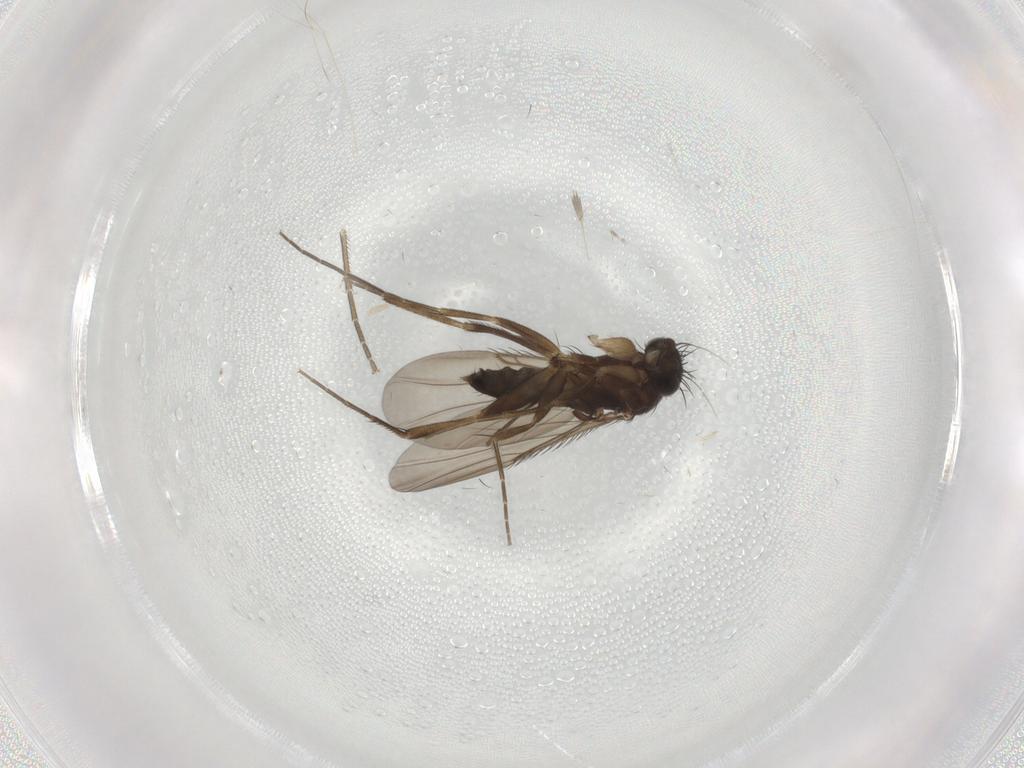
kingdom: Animalia
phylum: Arthropoda
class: Insecta
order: Diptera
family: Phoridae
